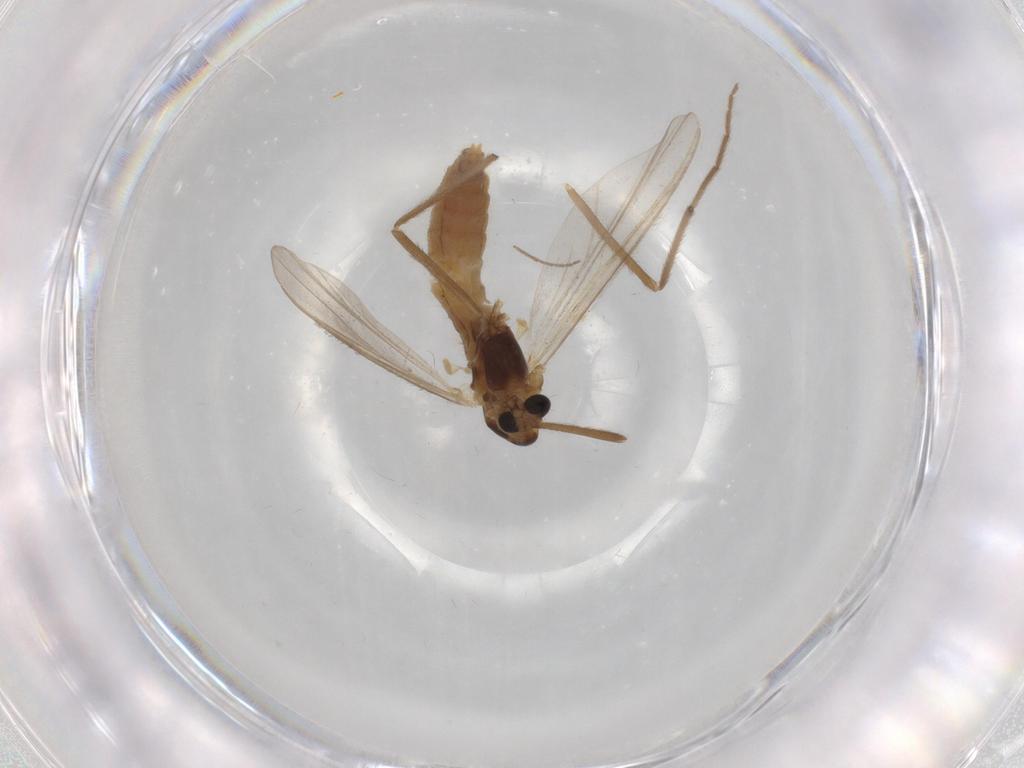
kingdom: Animalia
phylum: Arthropoda
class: Insecta
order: Diptera
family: Chironomidae
